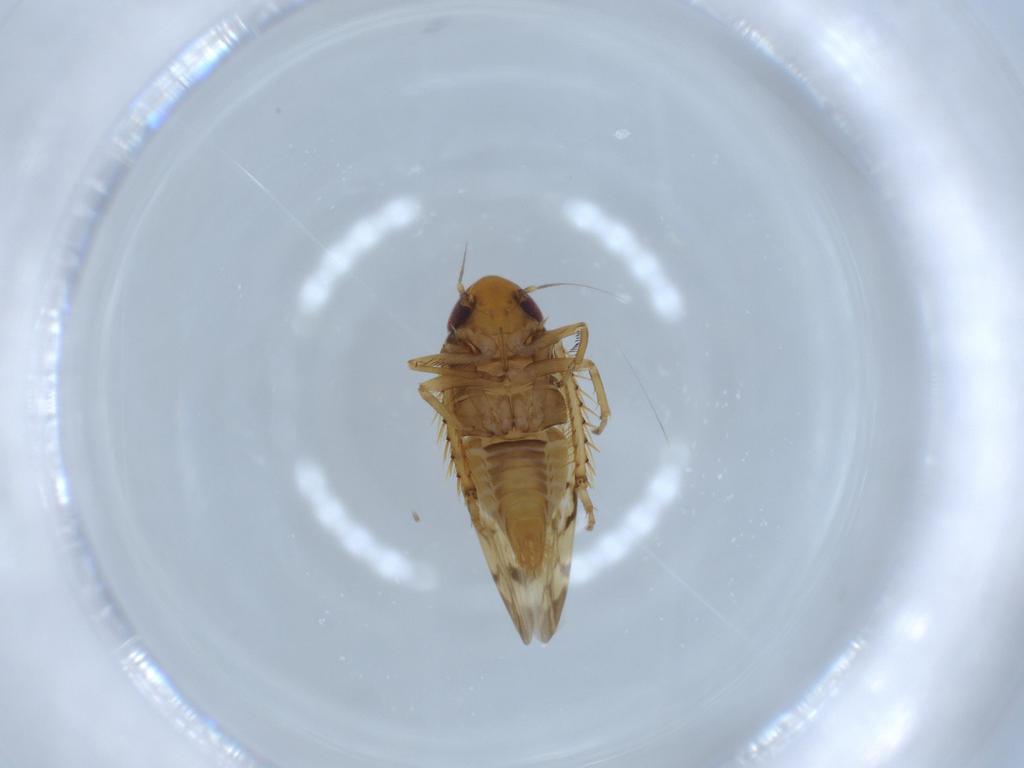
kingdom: Animalia
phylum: Arthropoda
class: Insecta
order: Hemiptera
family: Cicadellidae
